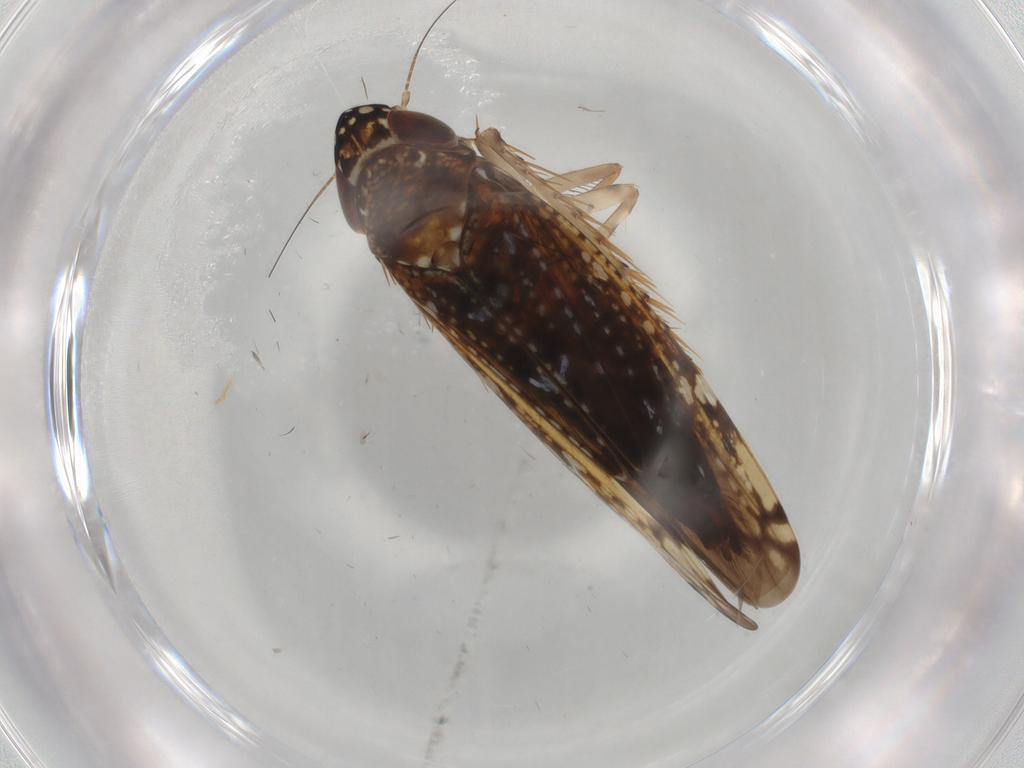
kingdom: Animalia
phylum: Arthropoda
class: Insecta
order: Hemiptera
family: Cicadellidae
